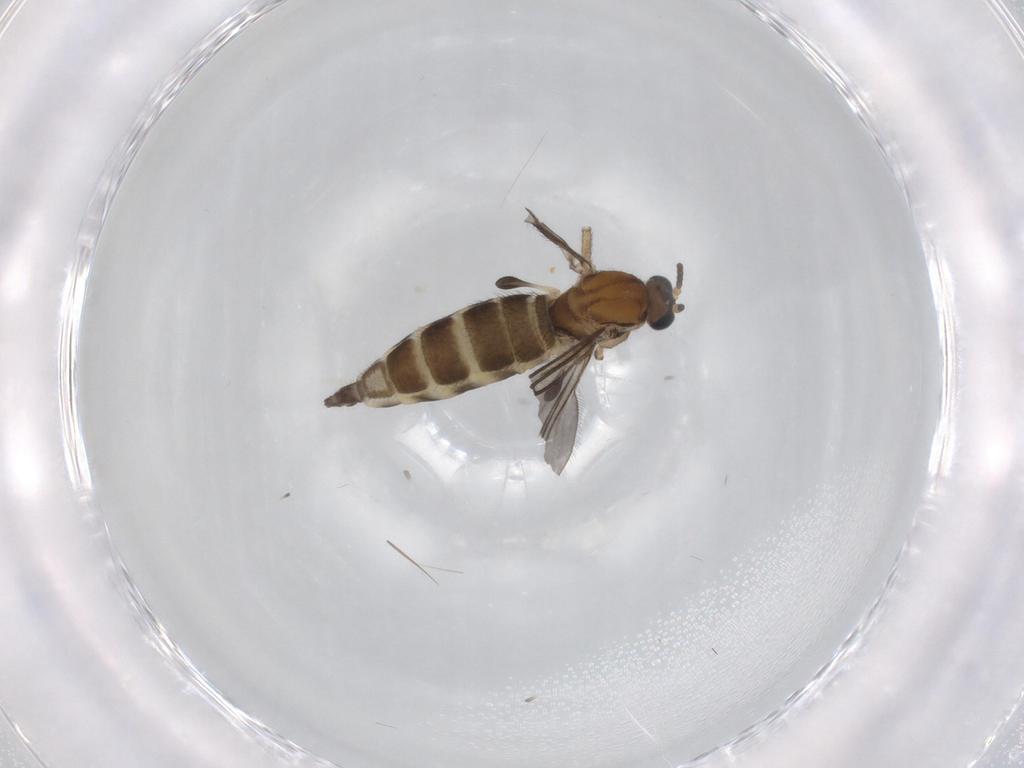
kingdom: Animalia
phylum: Arthropoda
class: Insecta
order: Diptera
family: Sciaridae
